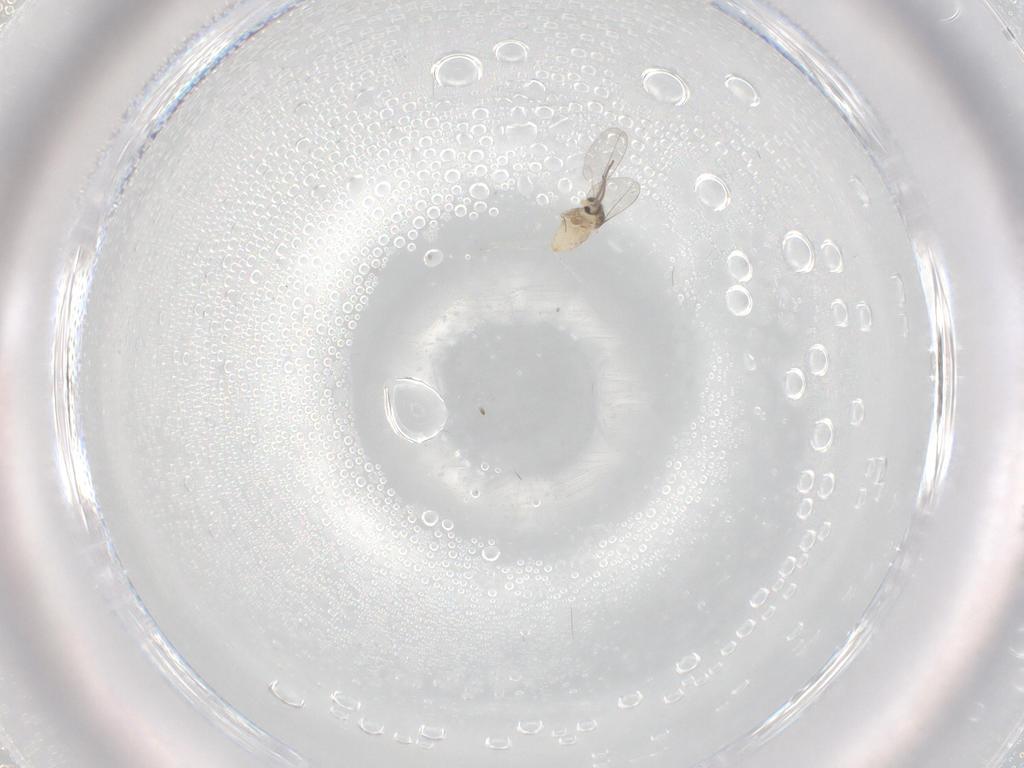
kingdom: Animalia
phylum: Arthropoda
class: Insecta
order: Diptera
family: Cecidomyiidae
